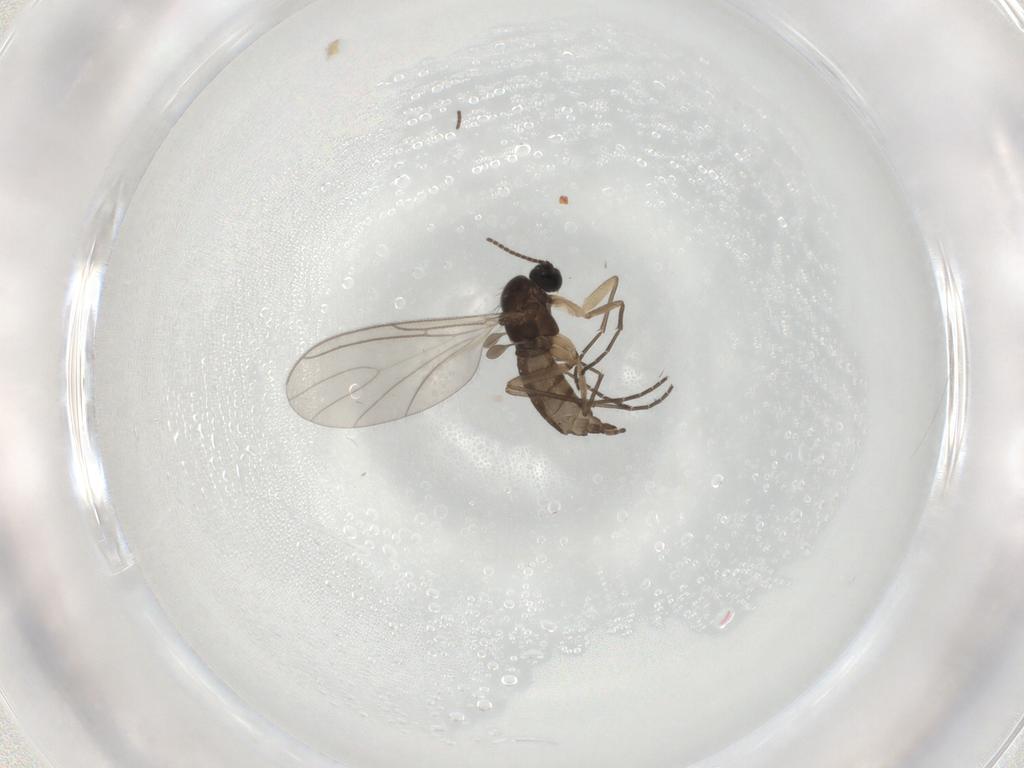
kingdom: Animalia
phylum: Arthropoda
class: Insecta
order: Diptera
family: Sciaridae
